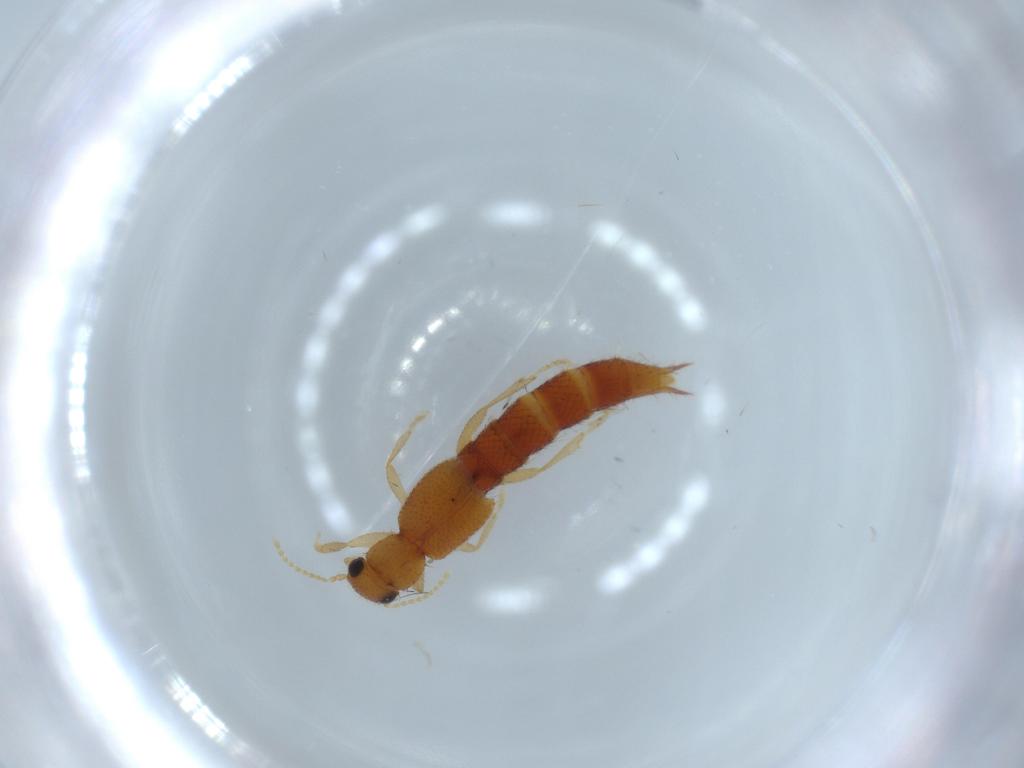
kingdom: Animalia
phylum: Arthropoda
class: Insecta
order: Coleoptera
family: Staphylinidae
